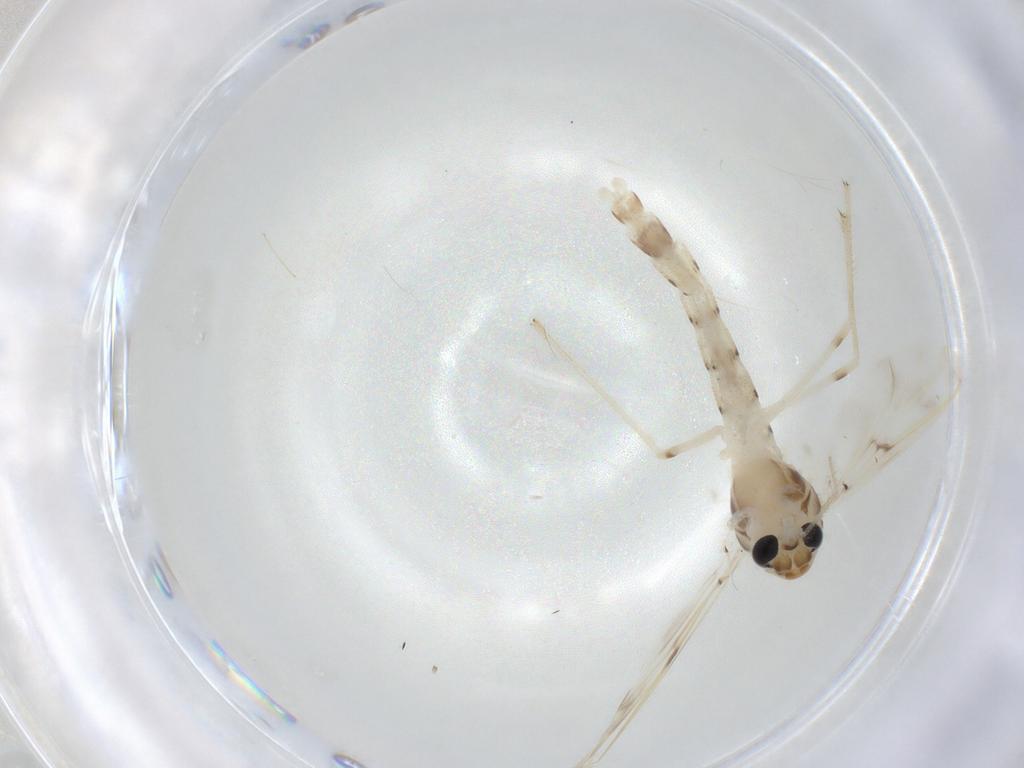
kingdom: Animalia
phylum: Arthropoda
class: Insecta
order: Diptera
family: Chironomidae
